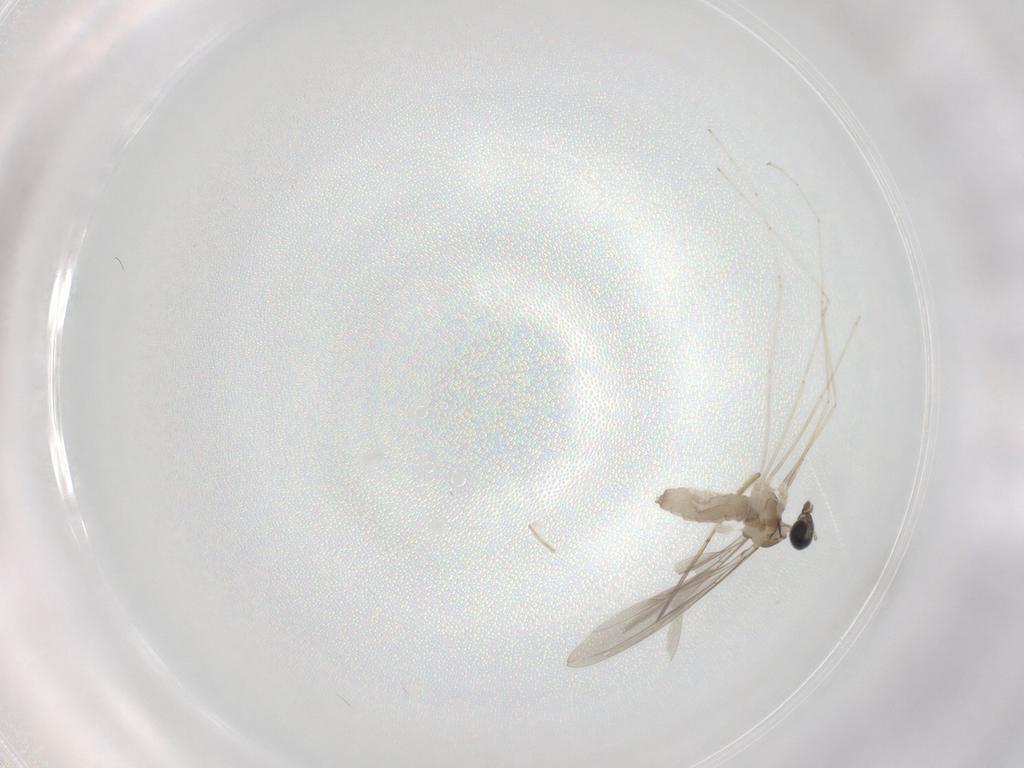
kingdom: Animalia
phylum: Arthropoda
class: Insecta
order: Diptera
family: Cecidomyiidae
